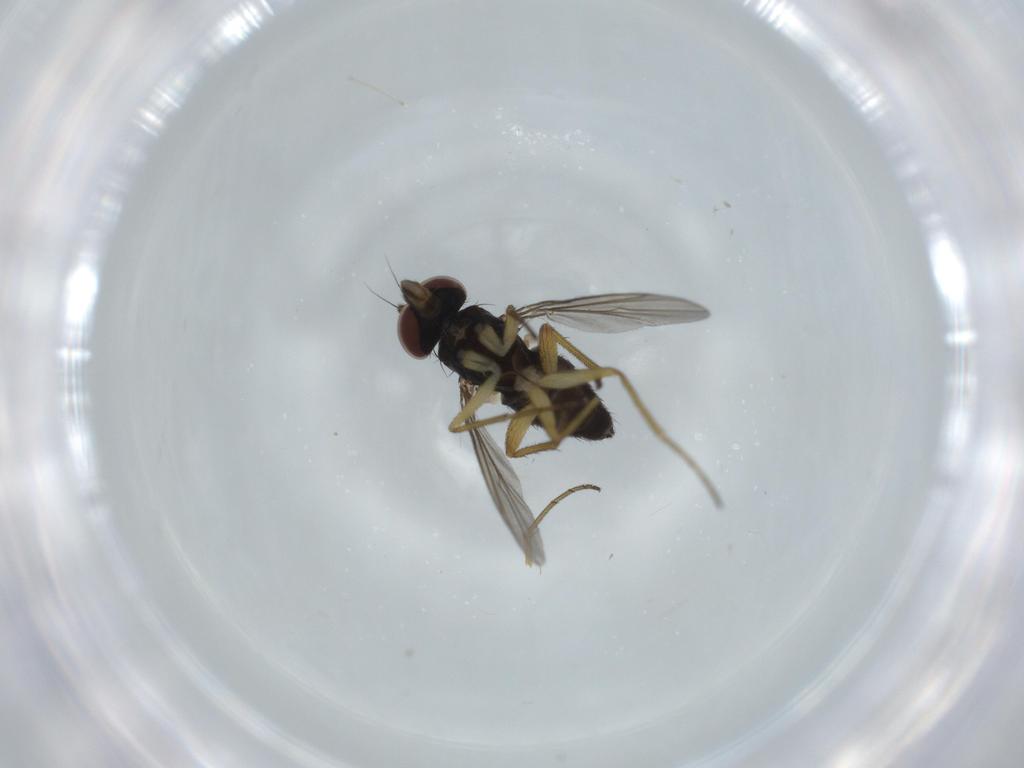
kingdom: Animalia
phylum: Arthropoda
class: Insecta
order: Diptera
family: Dolichopodidae
